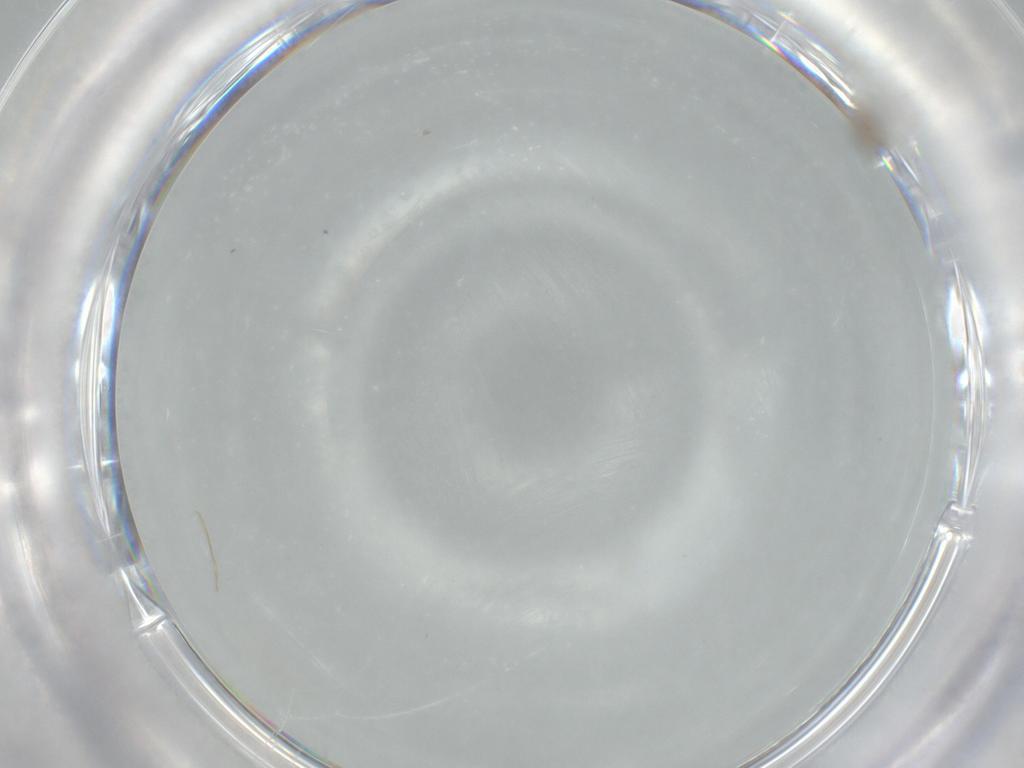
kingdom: Animalia
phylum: Arthropoda
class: Insecta
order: Diptera
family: Cecidomyiidae
